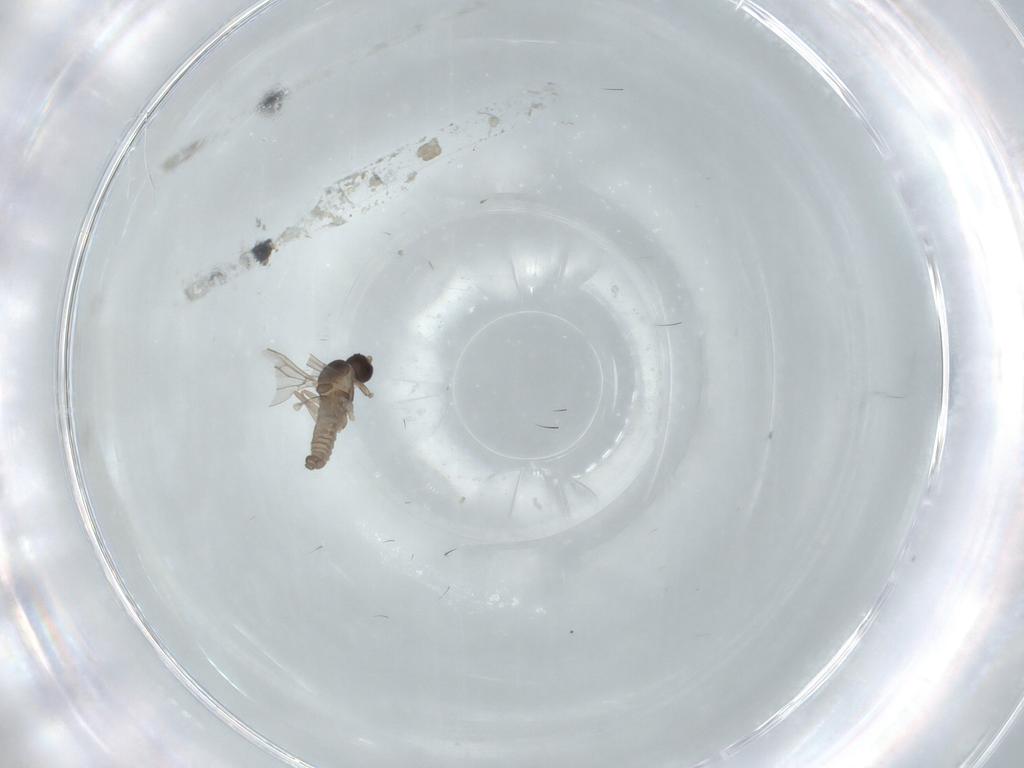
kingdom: Animalia
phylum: Arthropoda
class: Insecta
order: Diptera
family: Cecidomyiidae
